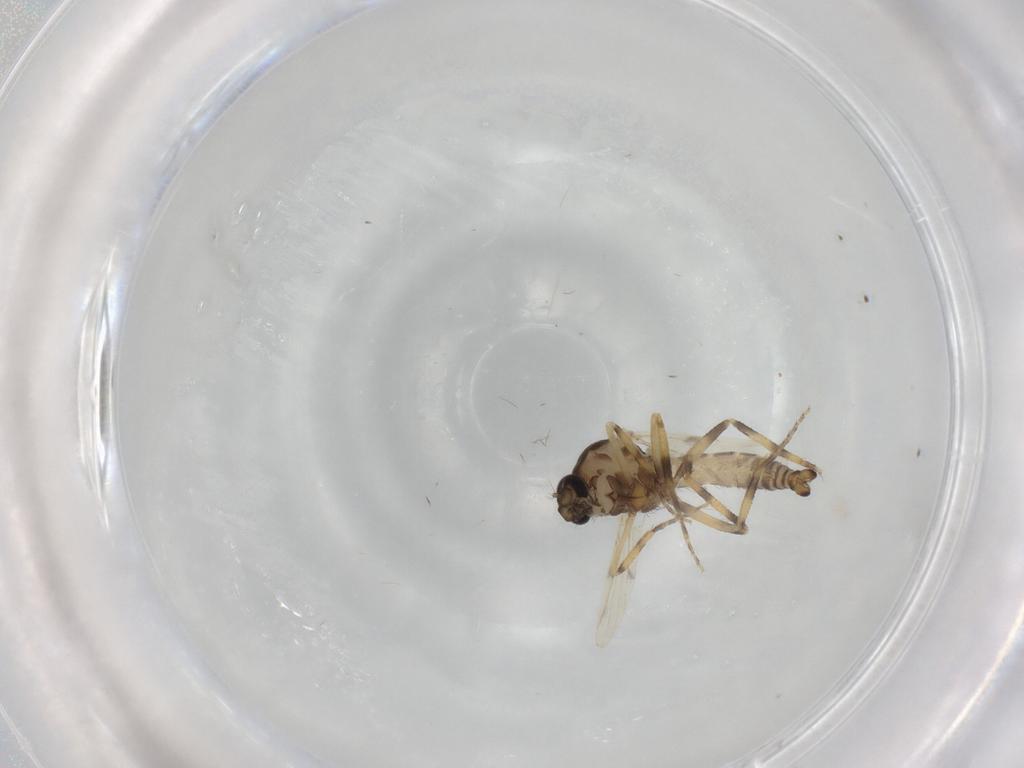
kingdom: Animalia
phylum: Arthropoda
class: Insecta
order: Diptera
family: Ceratopogonidae
